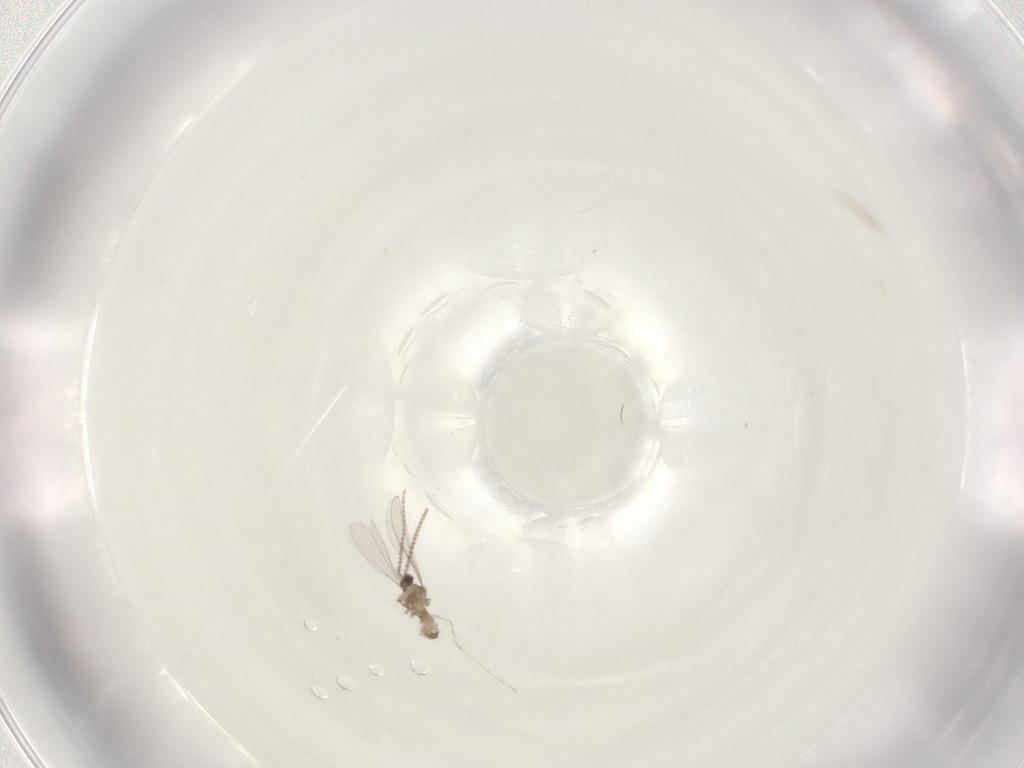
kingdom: Animalia
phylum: Arthropoda
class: Insecta
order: Diptera
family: Cecidomyiidae
